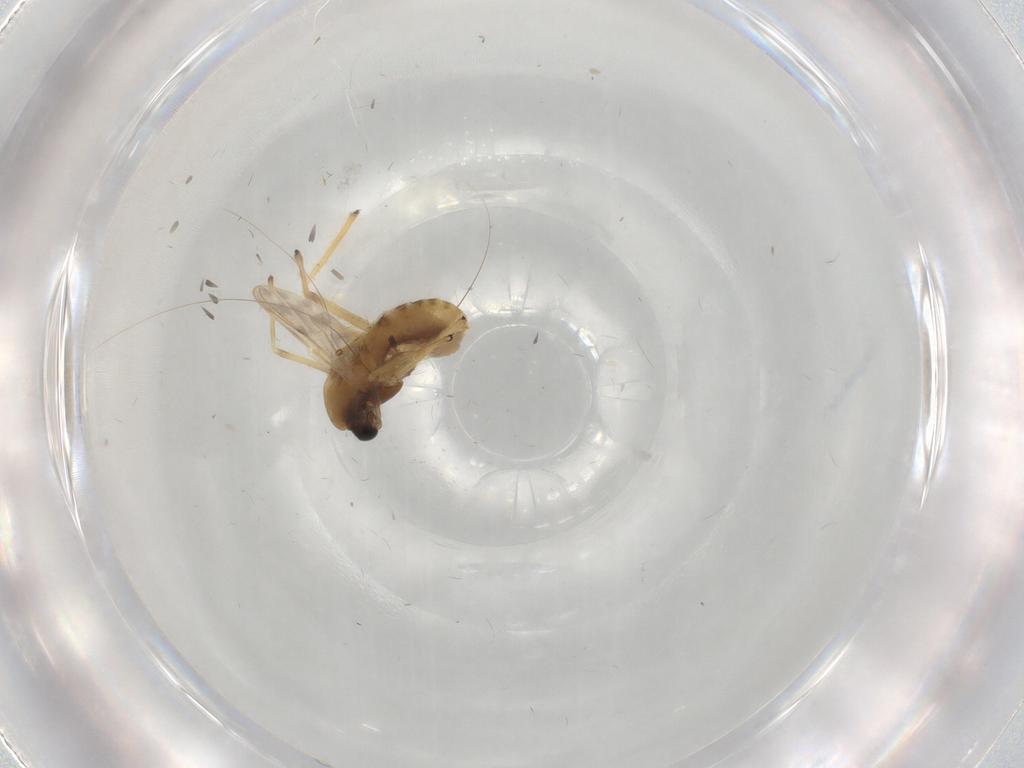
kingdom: Animalia
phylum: Arthropoda
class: Insecta
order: Diptera
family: Chironomidae
